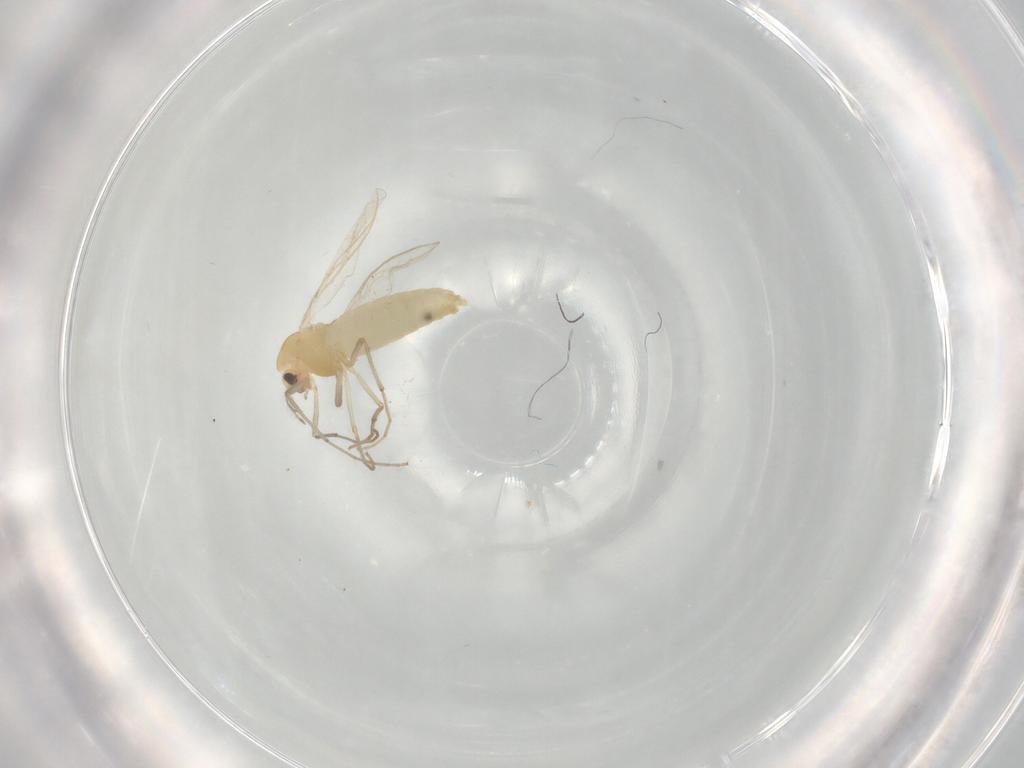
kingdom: Animalia
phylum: Arthropoda
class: Insecta
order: Diptera
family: Chironomidae
